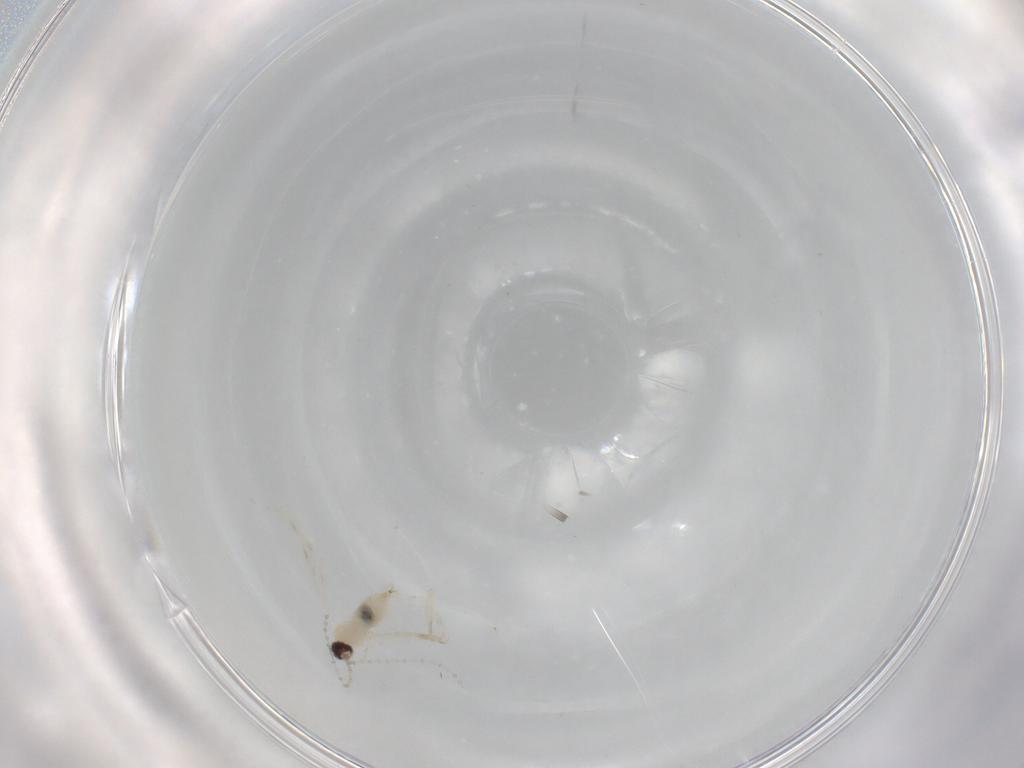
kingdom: Animalia
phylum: Arthropoda
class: Insecta
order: Diptera
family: Cecidomyiidae
